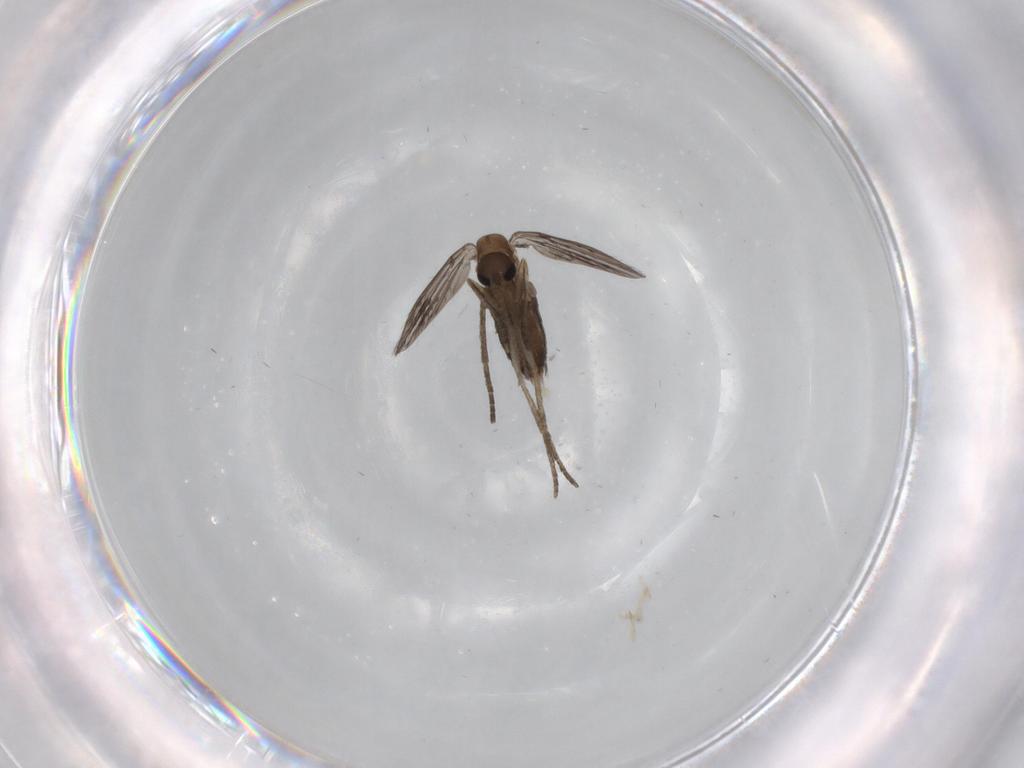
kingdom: Animalia
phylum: Arthropoda
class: Insecta
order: Diptera
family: Psychodidae
